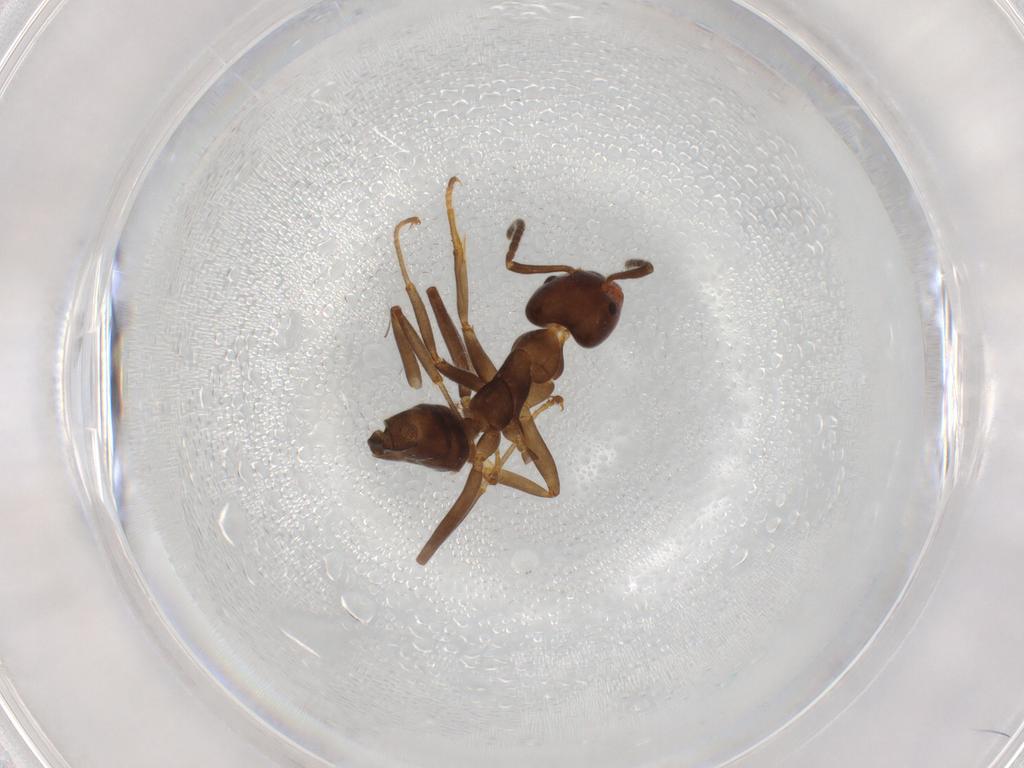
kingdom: Animalia
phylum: Arthropoda
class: Insecta
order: Hymenoptera
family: Formicidae
